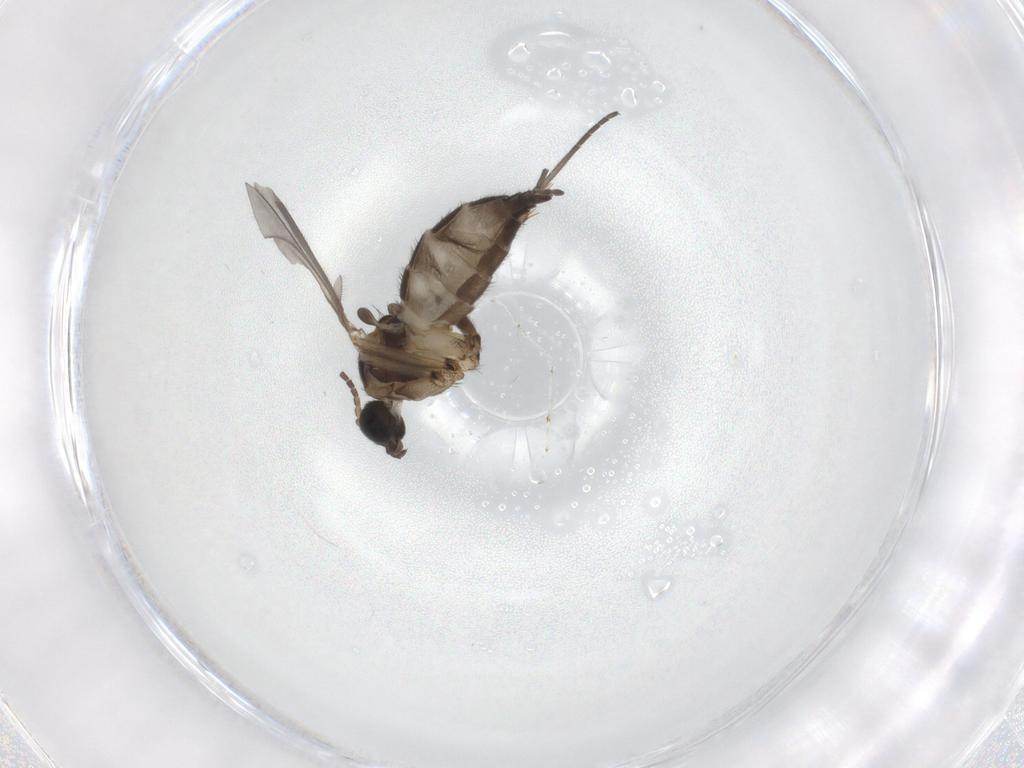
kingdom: Animalia
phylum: Arthropoda
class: Insecta
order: Diptera
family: Sciaridae
